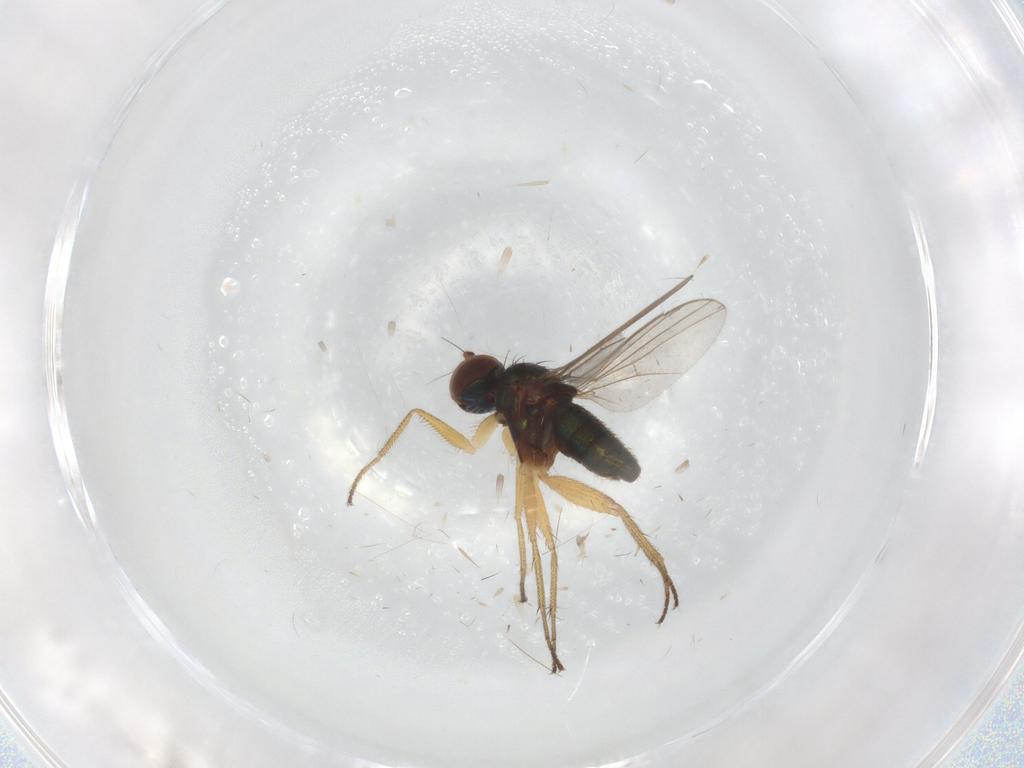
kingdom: Animalia
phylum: Arthropoda
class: Insecta
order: Diptera
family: Dolichopodidae
